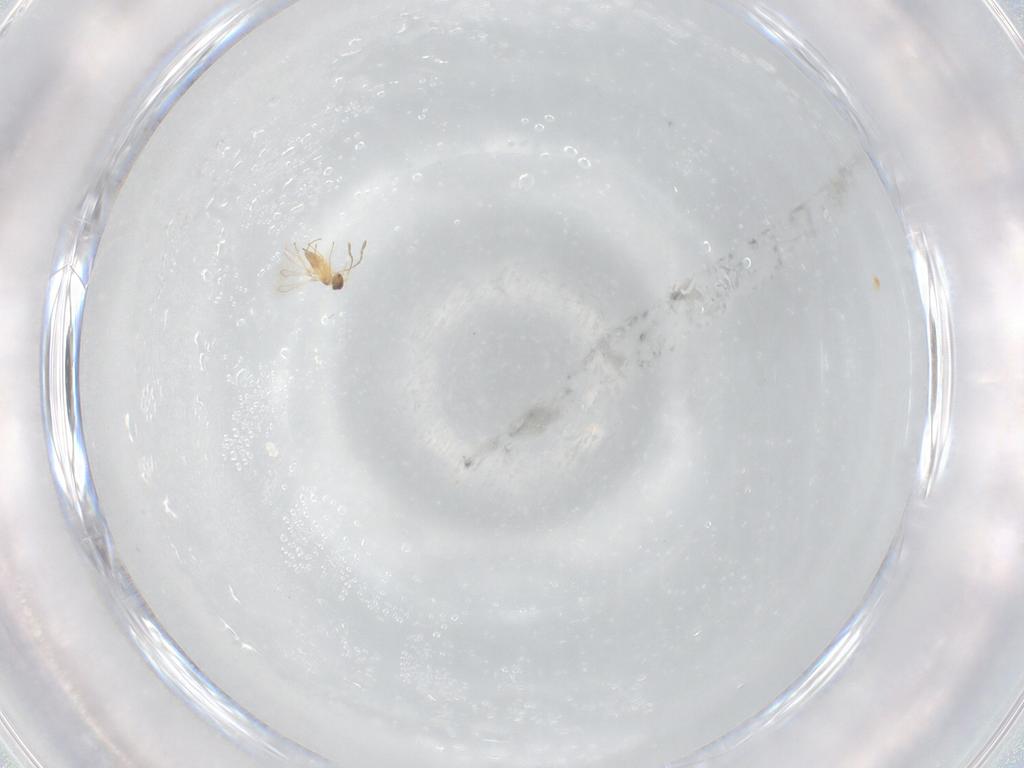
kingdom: Animalia
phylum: Arthropoda
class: Insecta
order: Hymenoptera
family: Mymaridae
